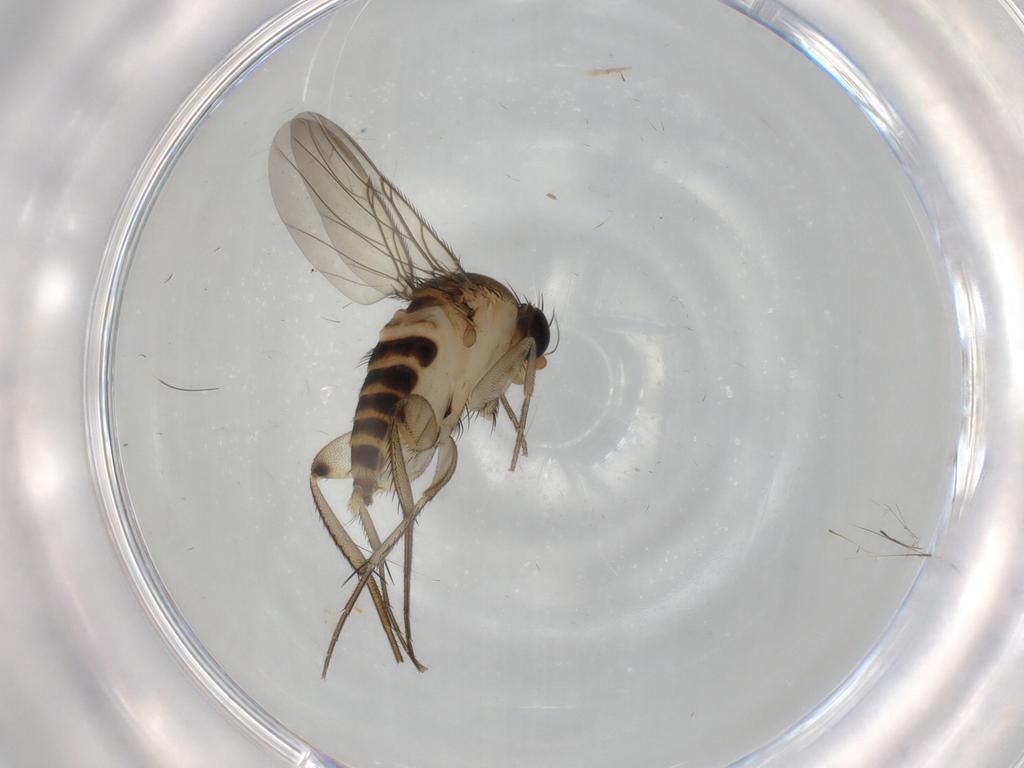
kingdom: Animalia
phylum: Arthropoda
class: Insecta
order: Diptera
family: Phoridae
